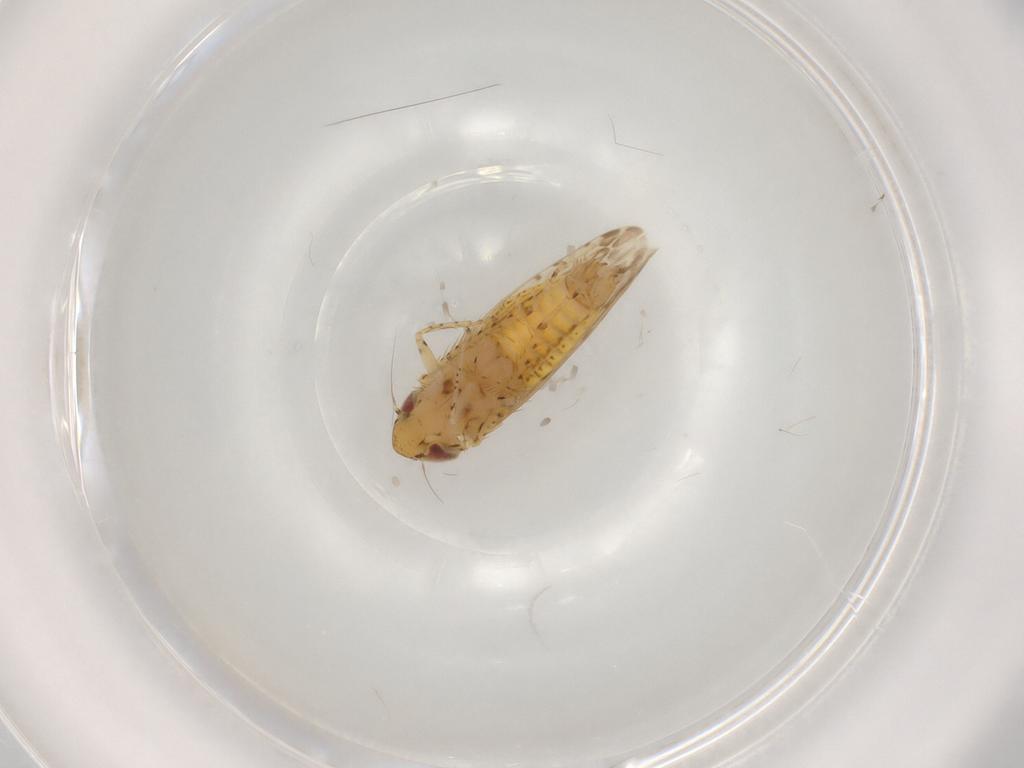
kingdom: Animalia
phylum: Arthropoda
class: Insecta
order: Hemiptera
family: Cicadellidae
